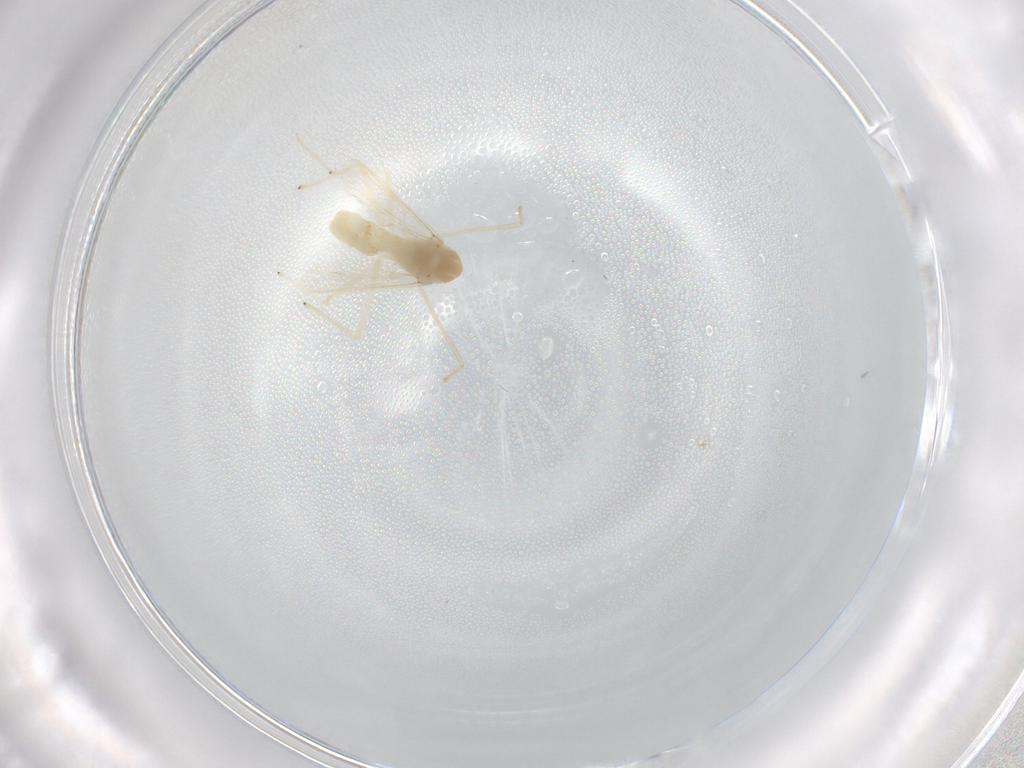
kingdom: Animalia
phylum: Arthropoda
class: Insecta
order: Diptera
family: Chironomidae
